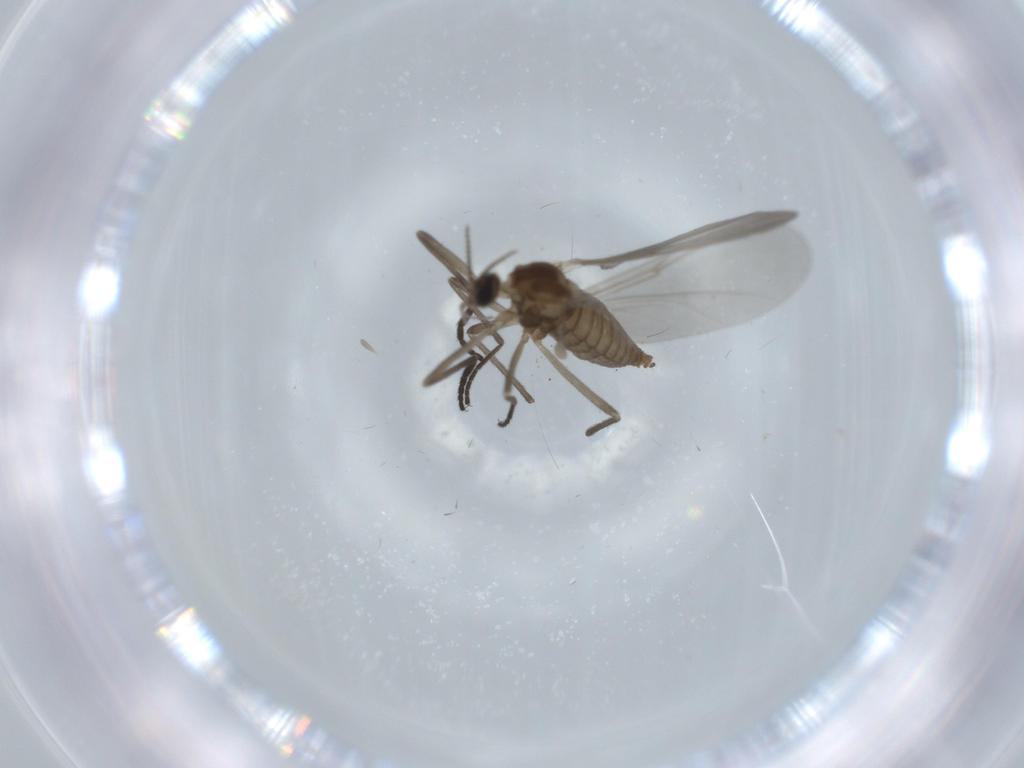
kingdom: Animalia
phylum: Arthropoda
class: Insecta
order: Diptera
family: Cecidomyiidae
